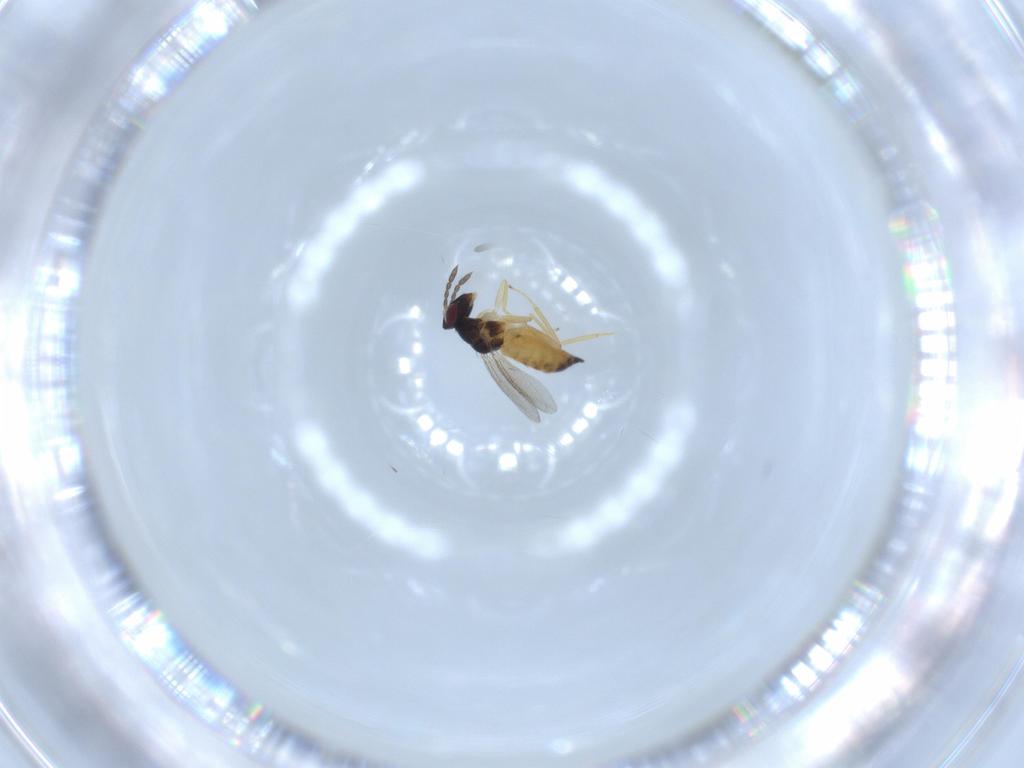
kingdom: Animalia
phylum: Arthropoda
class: Insecta
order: Hymenoptera
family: Eulophidae
